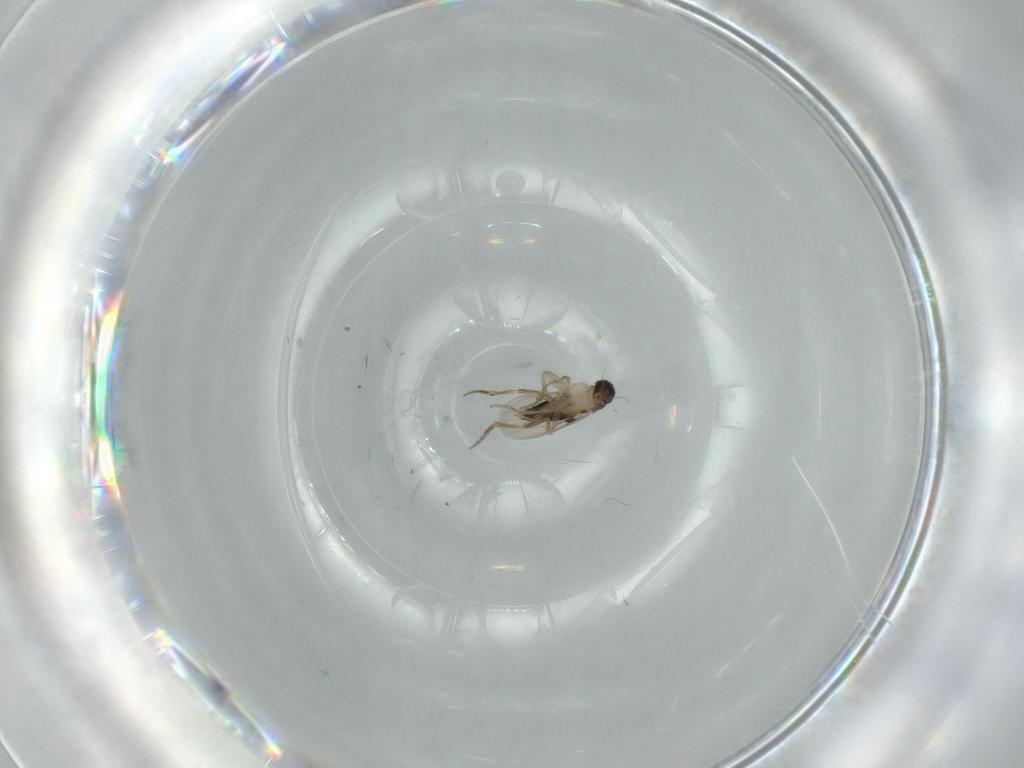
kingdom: Animalia
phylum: Arthropoda
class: Insecta
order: Diptera
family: Phoridae
